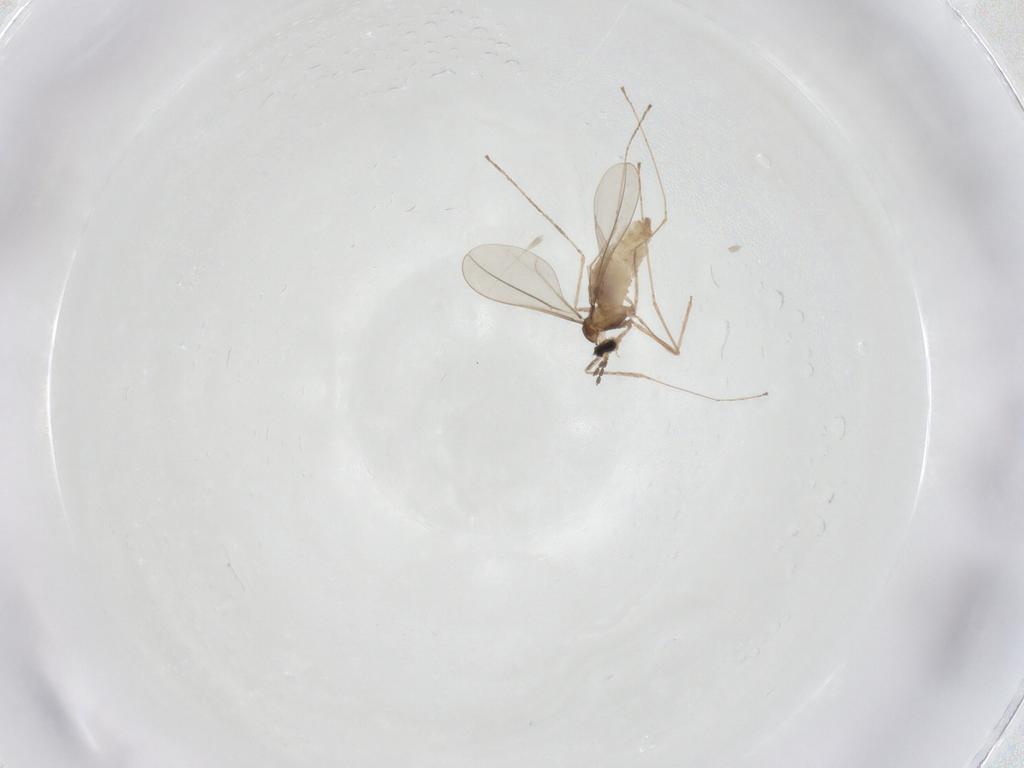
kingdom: Animalia
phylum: Arthropoda
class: Insecta
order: Diptera
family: Cecidomyiidae
